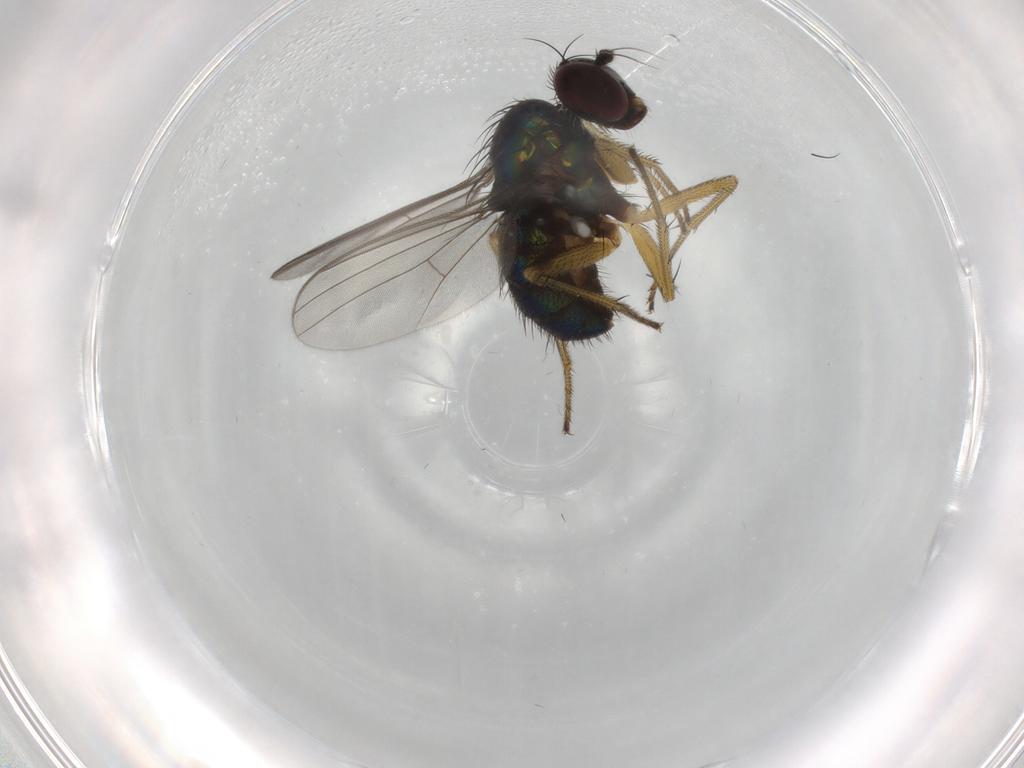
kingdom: Animalia
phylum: Arthropoda
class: Insecta
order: Diptera
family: Dolichopodidae
